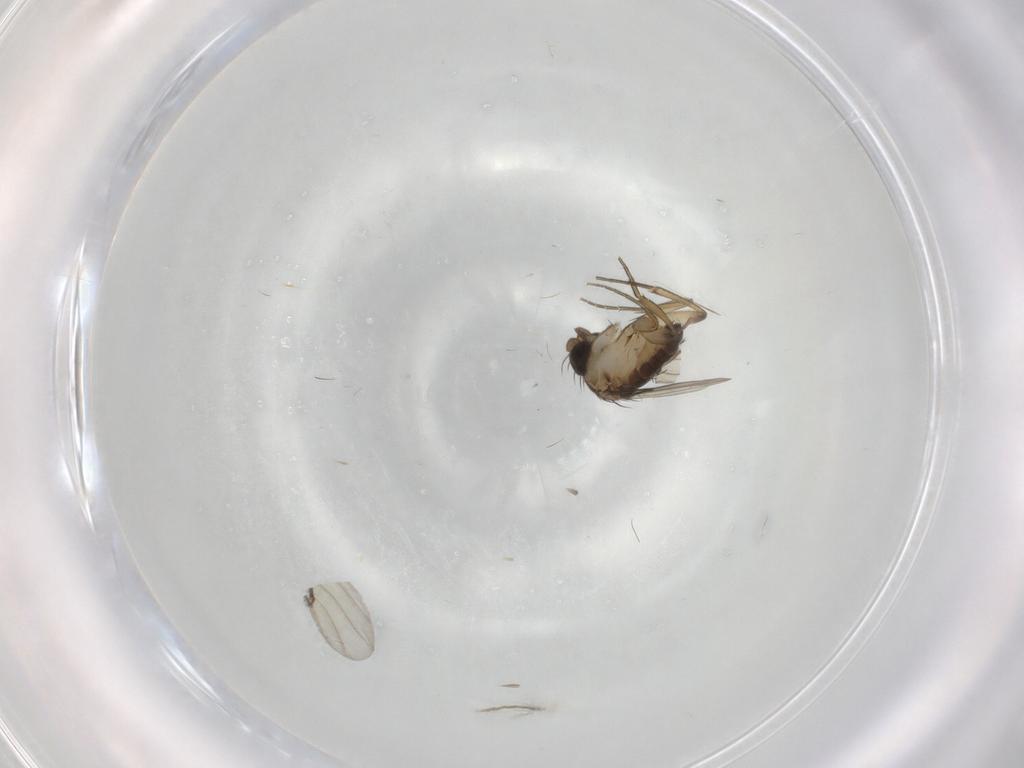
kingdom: Animalia
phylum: Arthropoda
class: Insecta
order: Diptera
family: Phoridae
